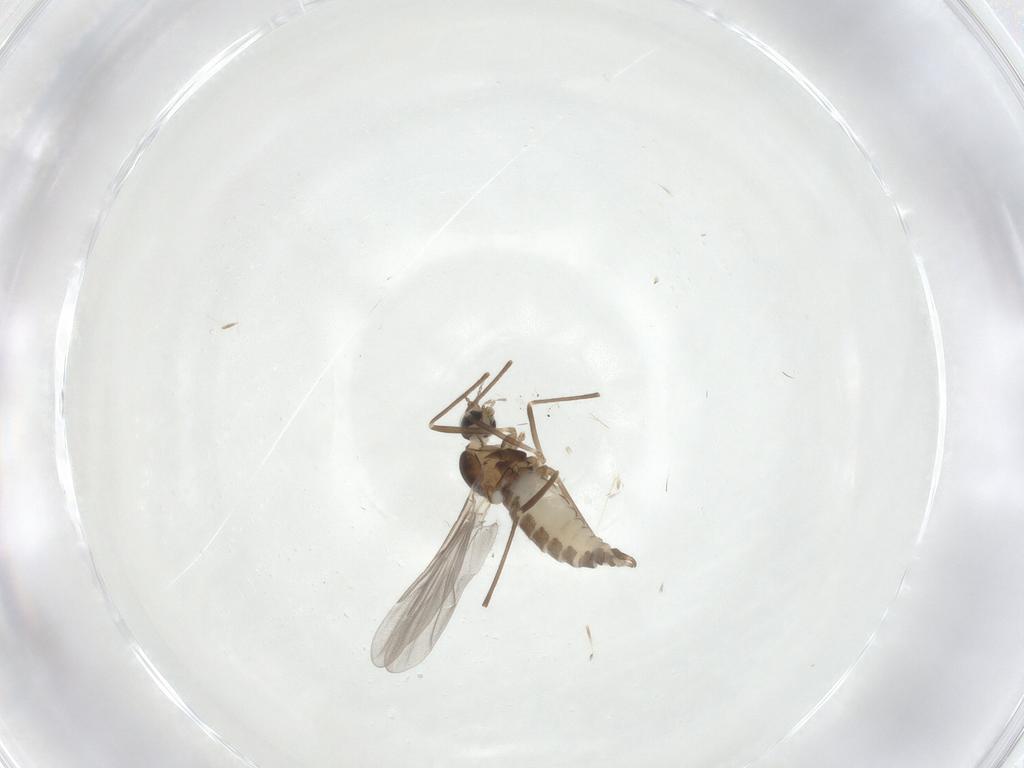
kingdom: Animalia
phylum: Arthropoda
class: Insecta
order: Diptera
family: Cecidomyiidae
